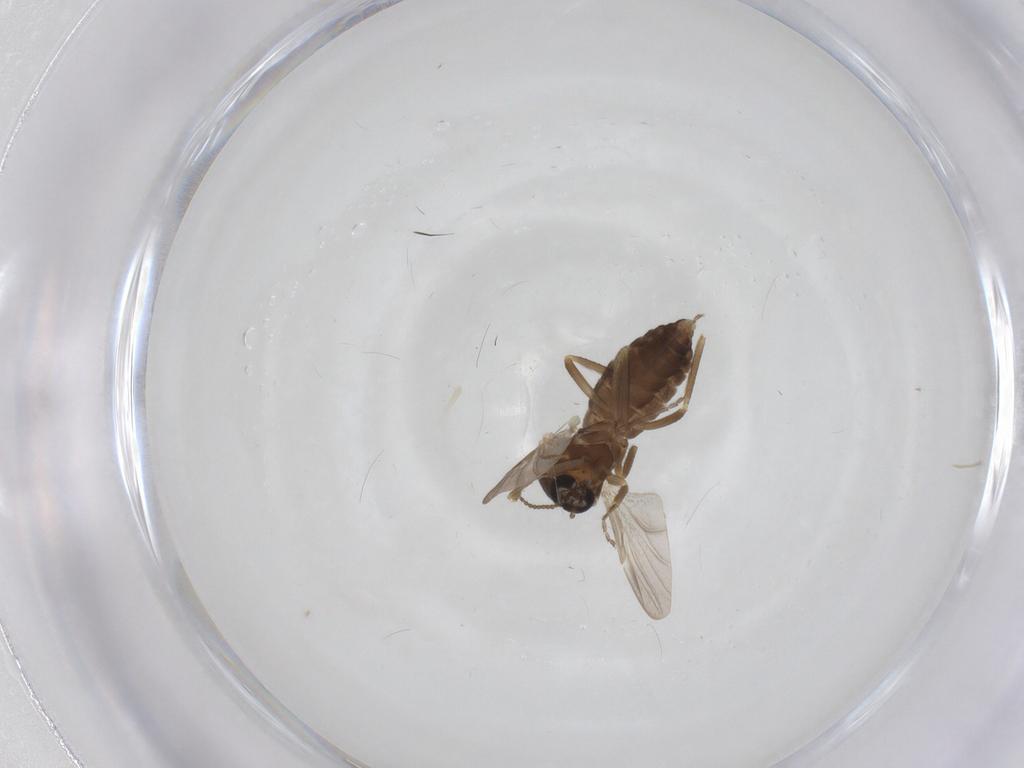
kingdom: Animalia
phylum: Arthropoda
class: Insecta
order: Diptera
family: Ceratopogonidae
